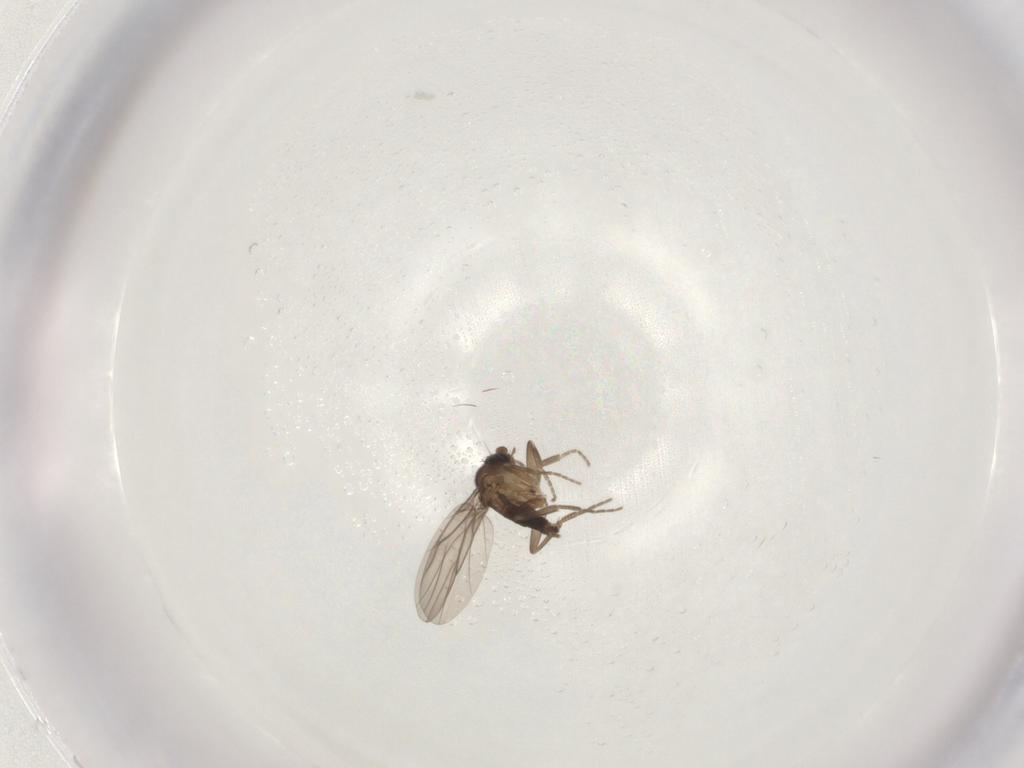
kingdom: Animalia
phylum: Arthropoda
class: Insecta
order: Diptera
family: Phoridae
